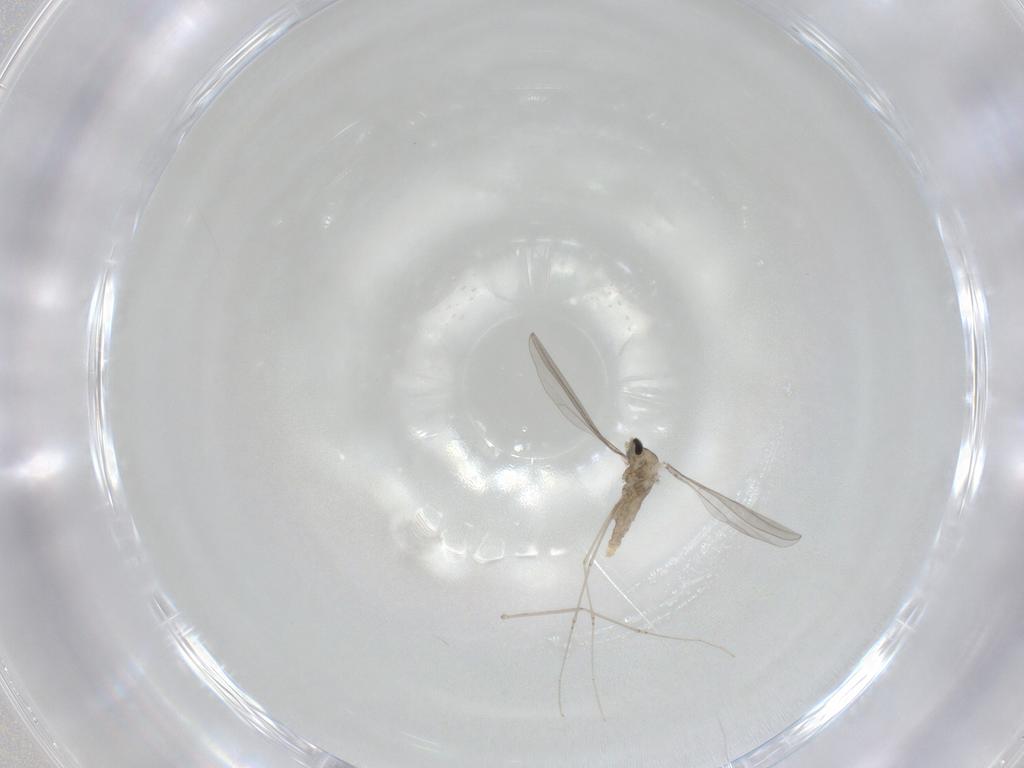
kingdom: Animalia
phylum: Arthropoda
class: Insecta
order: Diptera
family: Cecidomyiidae
